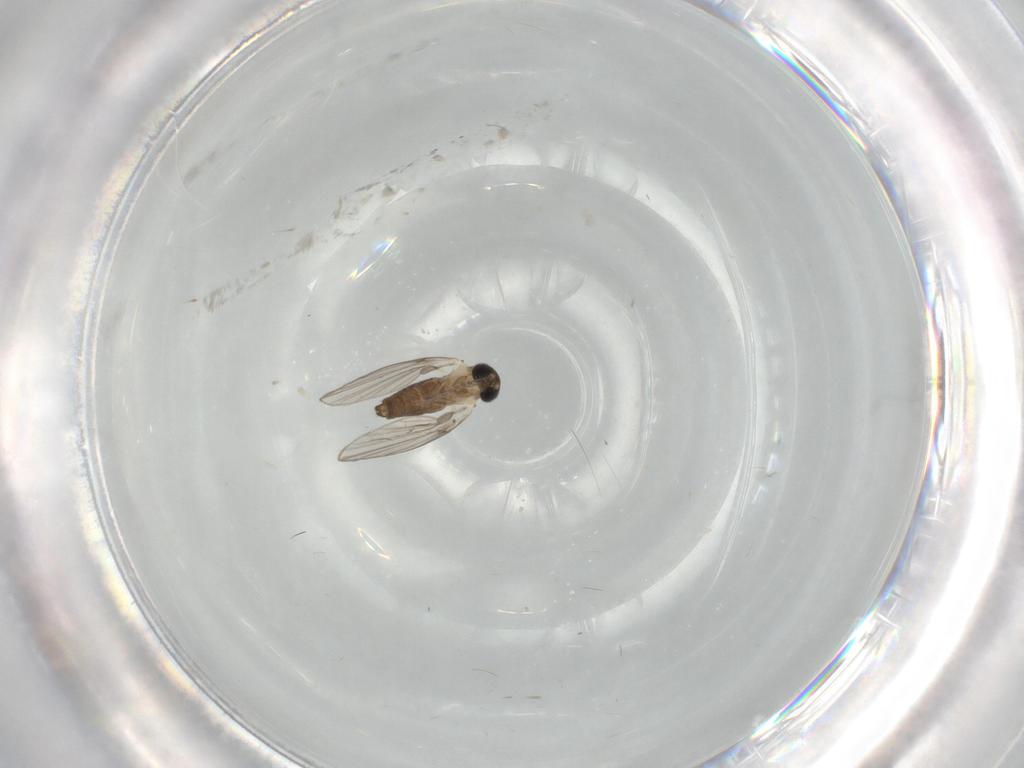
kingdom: Animalia
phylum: Arthropoda
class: Insecta
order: Diptera
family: Psychodidae
